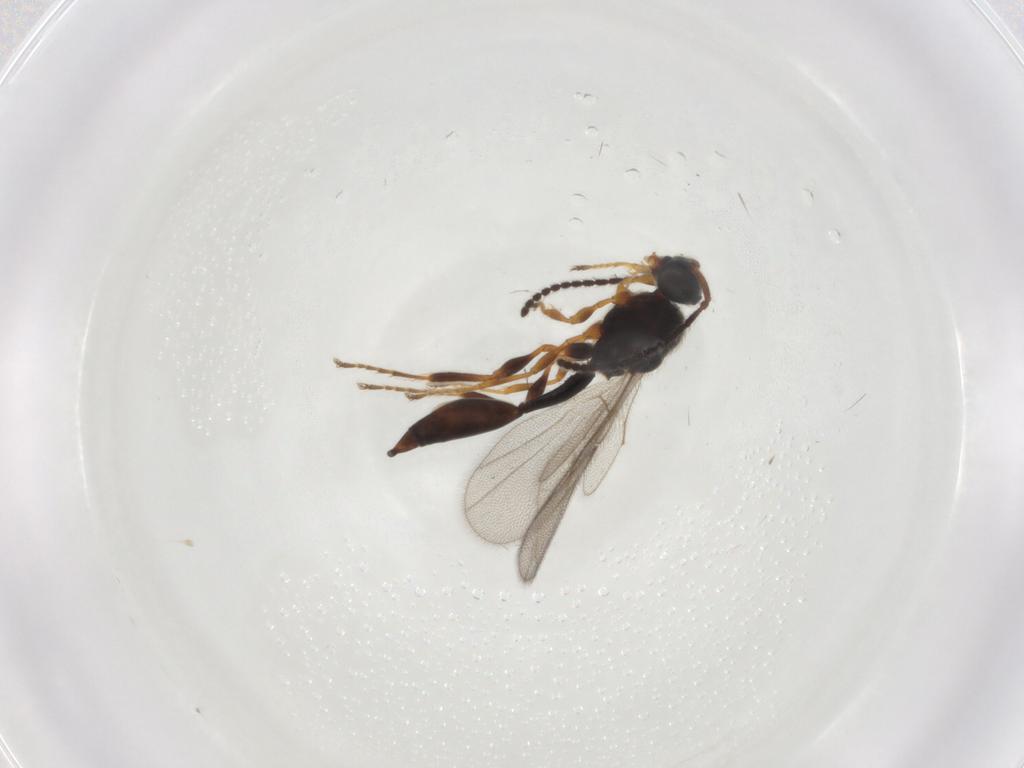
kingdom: Animalia
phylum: Arthropoda
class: Insecta
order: Hymenoptera
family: Diapriidae
